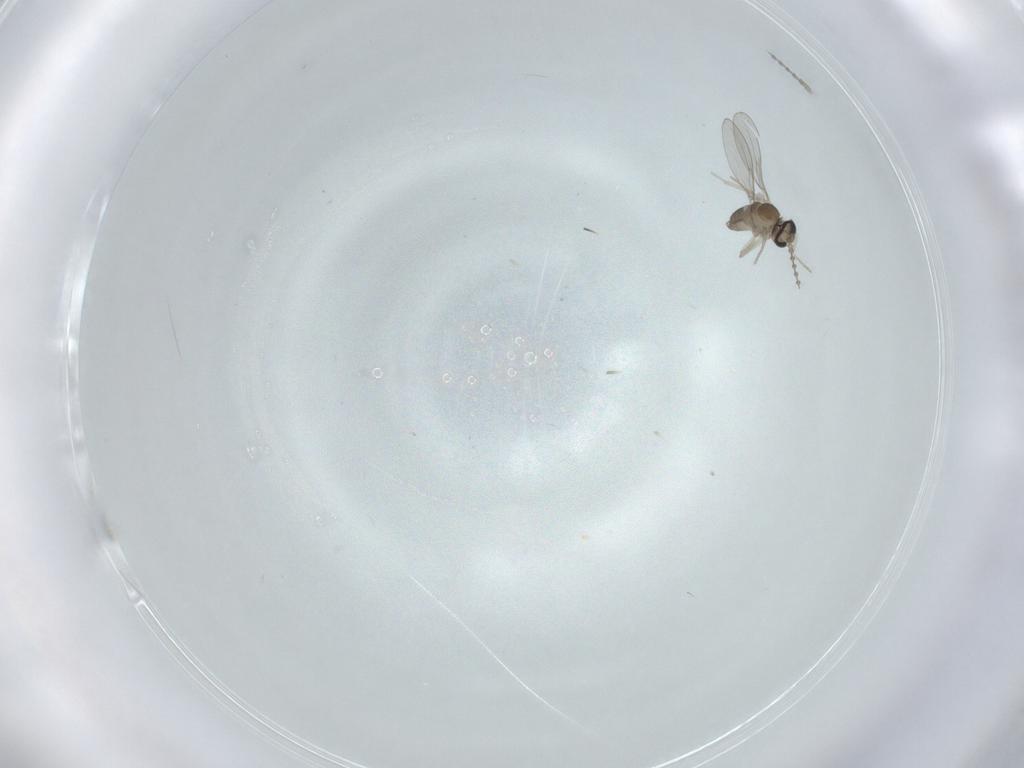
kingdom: Animalia
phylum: Arthropoda
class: Insecta
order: Diptera
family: Cecidomyiidae
